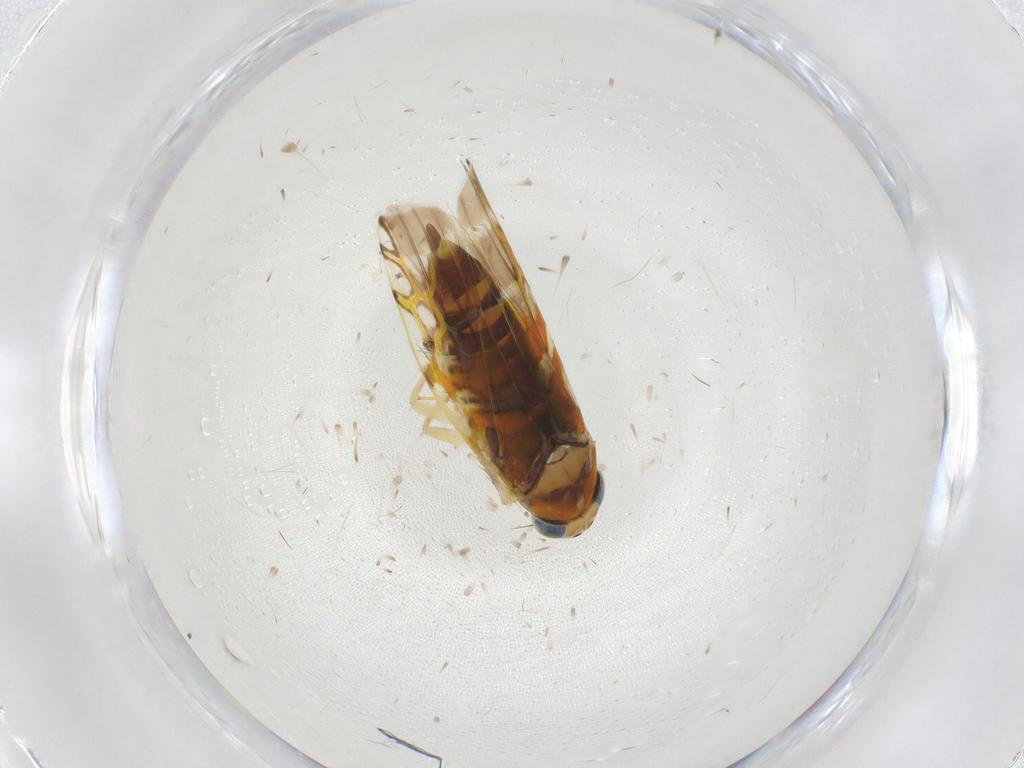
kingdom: Animalia
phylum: Arthropoda
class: Insecta
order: Hemiptera
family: Cicadellidae
